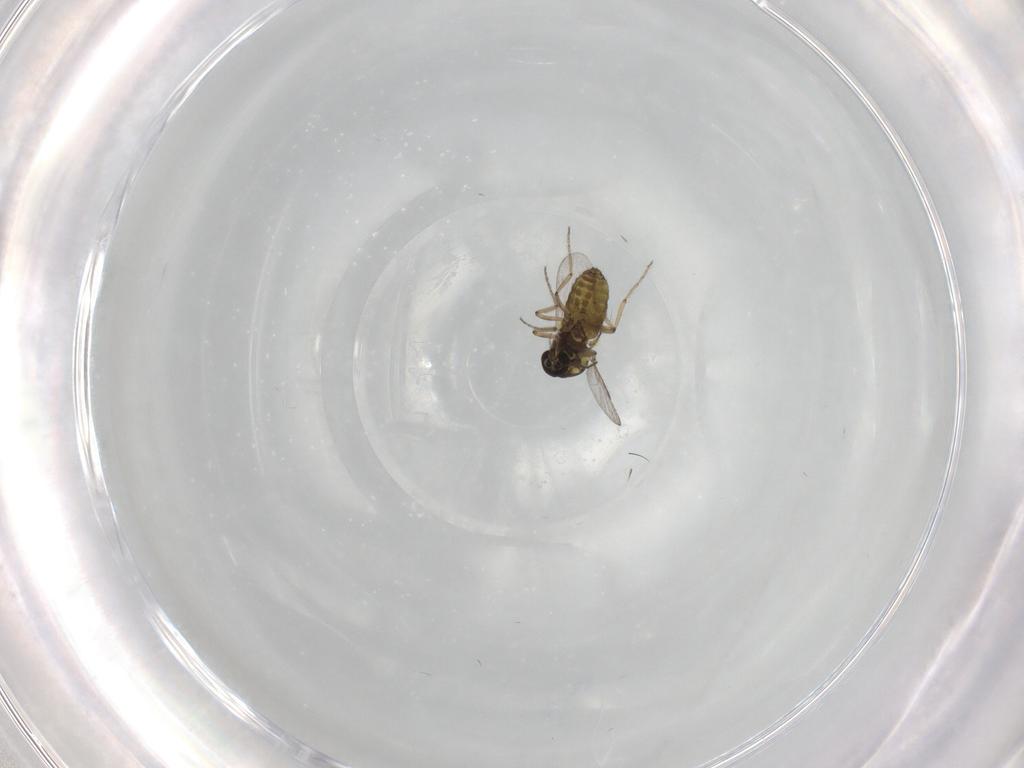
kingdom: Animalia
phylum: Arthropoda
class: Insecta
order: Diptera
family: Ceratopogonidae
